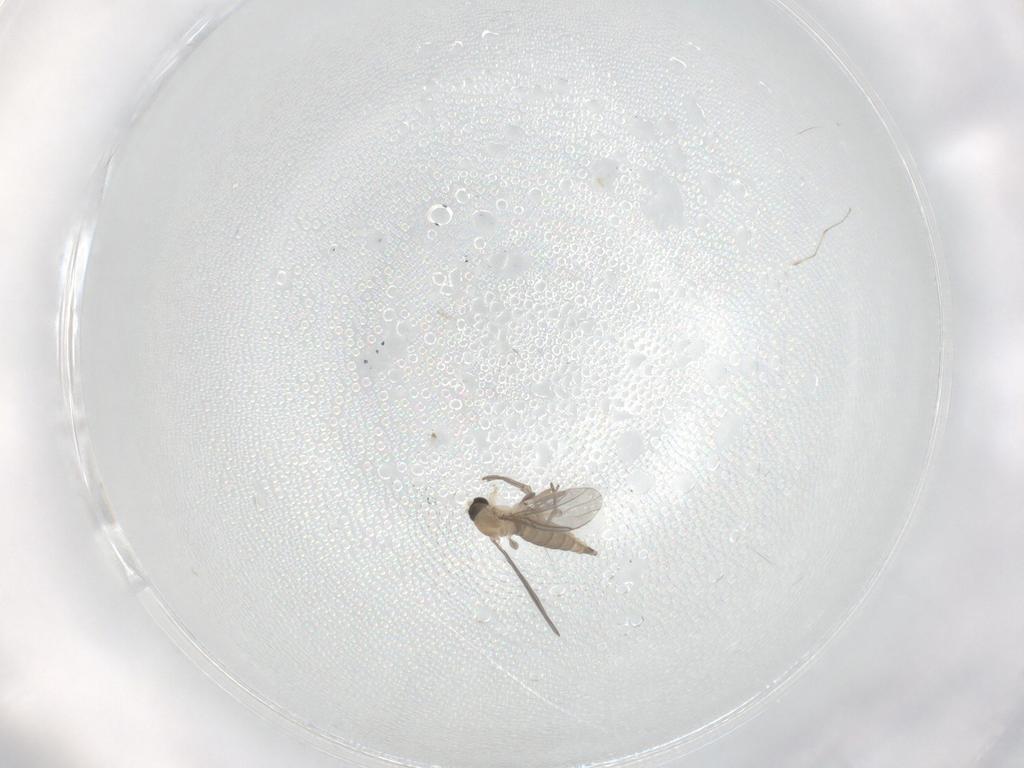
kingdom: Animalia
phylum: Arthropoda
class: Insecta
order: Diptera
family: Sciaridae
